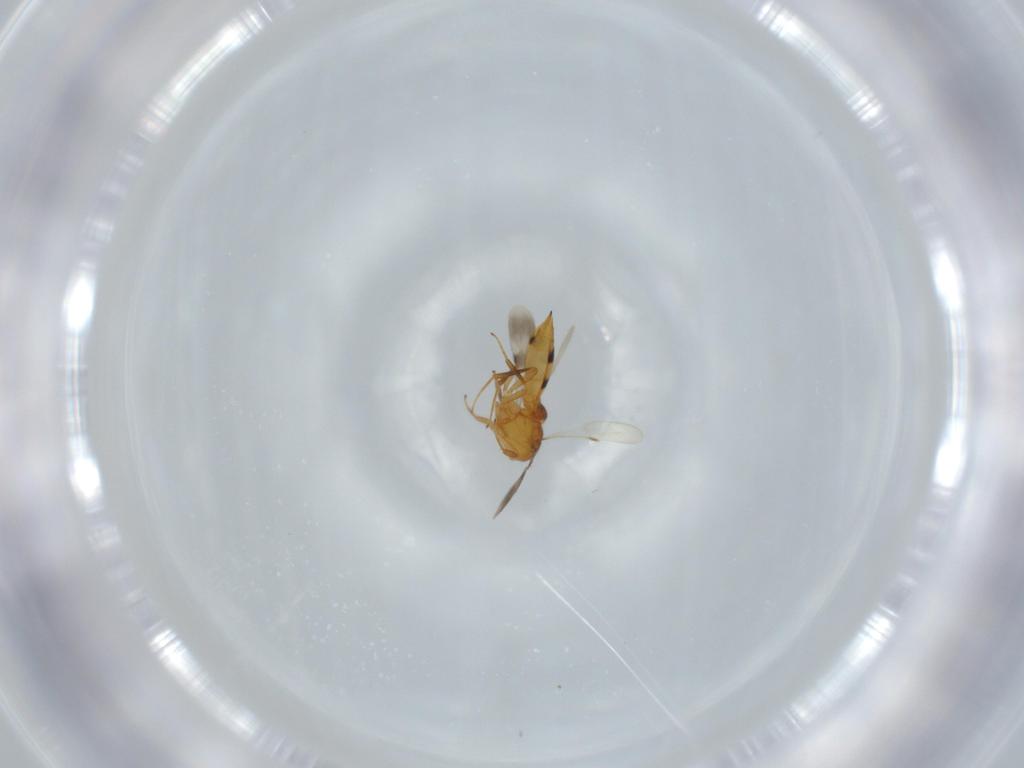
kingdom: Animalia
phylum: Arthropoda
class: Insecta
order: Hymenoptera
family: Scelionidae
